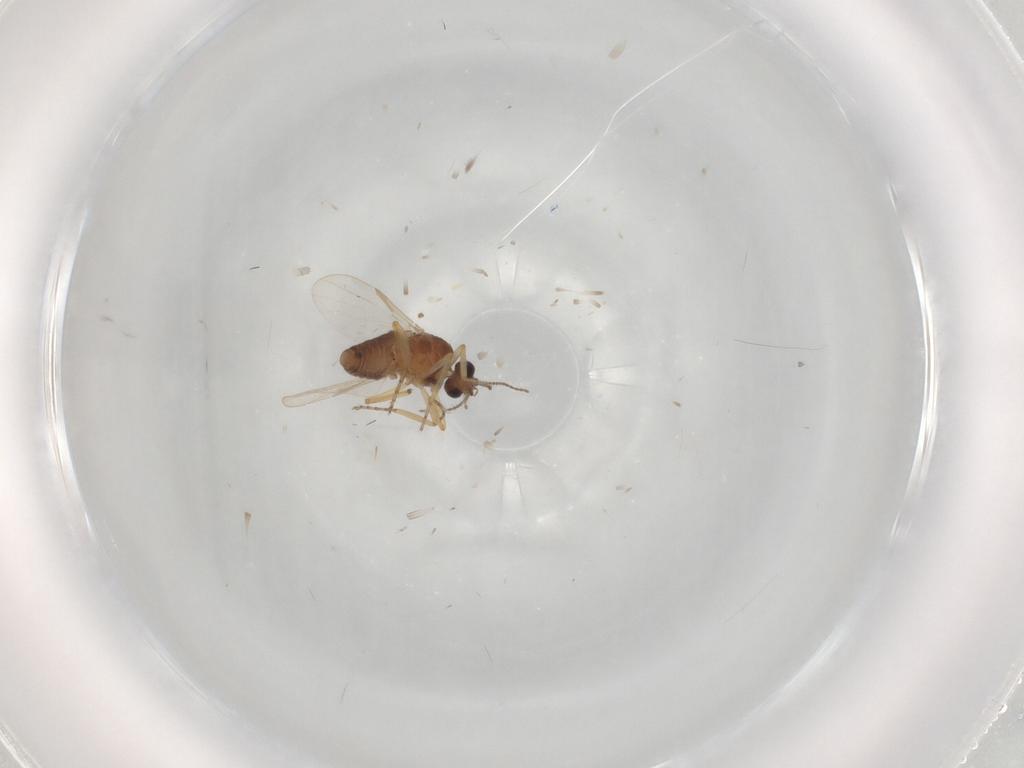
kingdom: Animalia
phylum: Arthropoda
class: Insecta
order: Diptera
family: Ceratopogonidae
